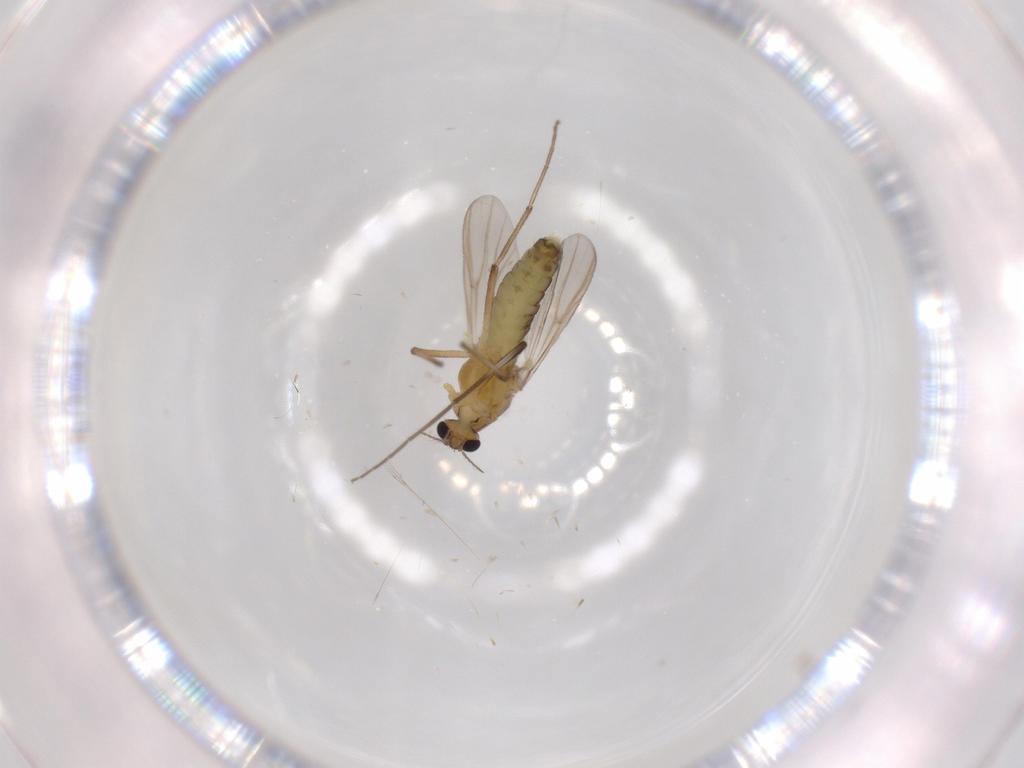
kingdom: Animalia
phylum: Arthropoda
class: Insecta
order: Diptera
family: Chironomidae
